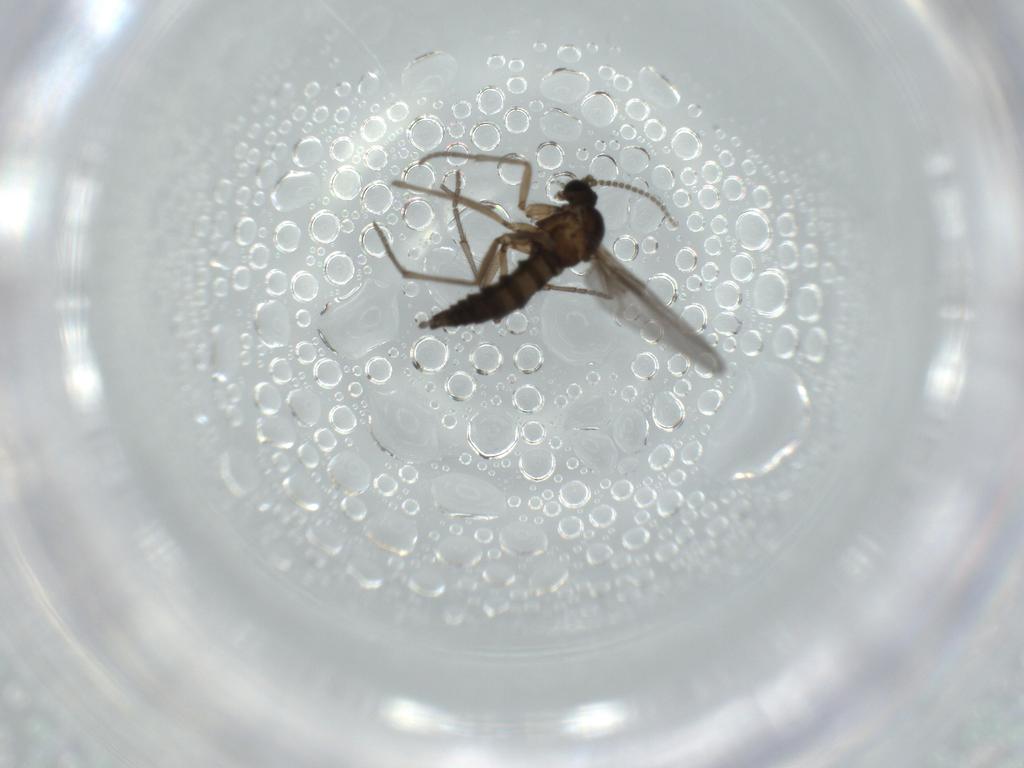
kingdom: Animalia
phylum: Arthropoda
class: Insecta
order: Diptera
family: Sciaridae
